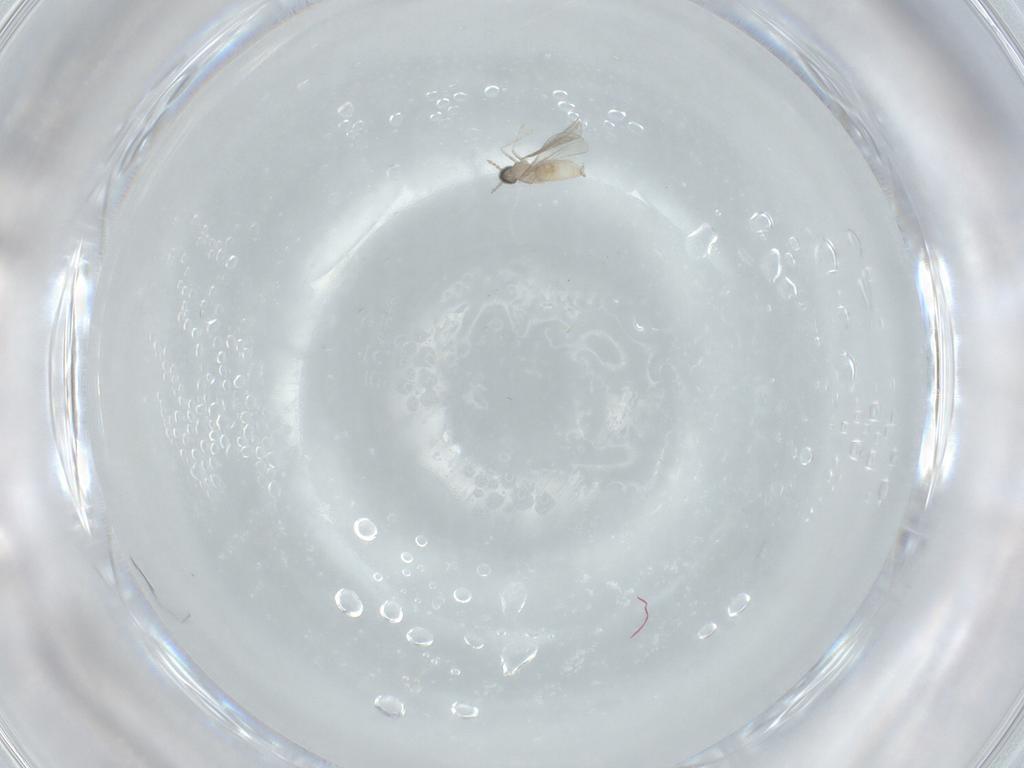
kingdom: Animalia
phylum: Arthropoda
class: Insecta
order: Diptera
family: Cecidomyiidae
